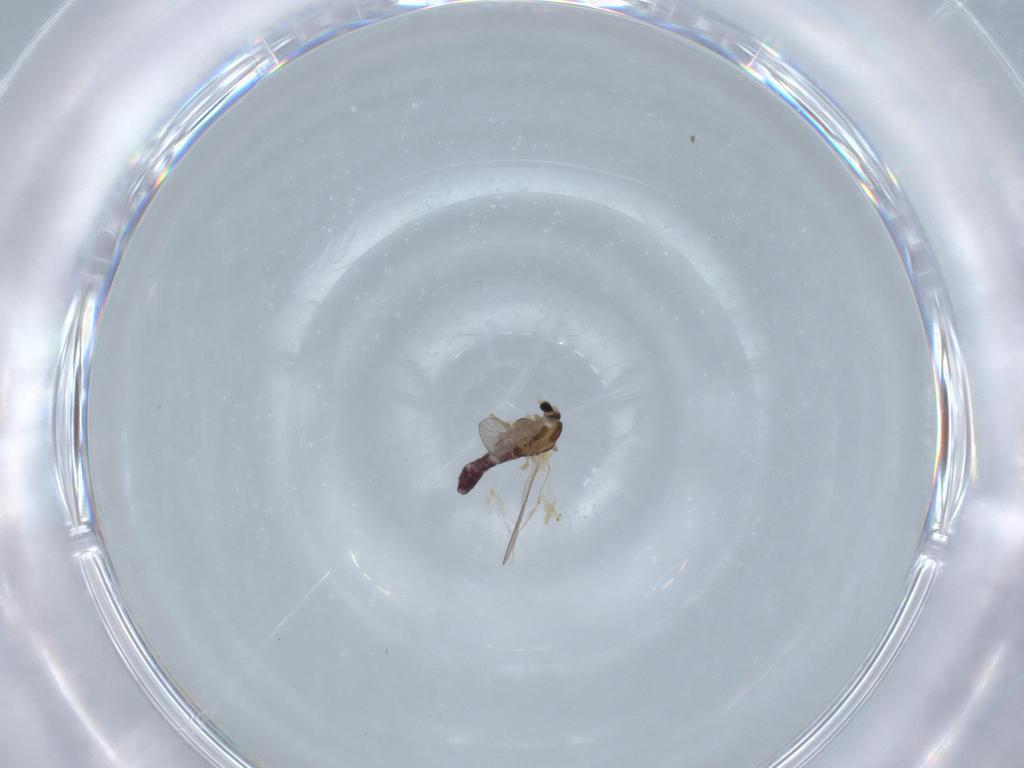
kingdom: Animalia
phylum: Arthropoda
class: Insecta
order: Diptera
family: Chironomidae
